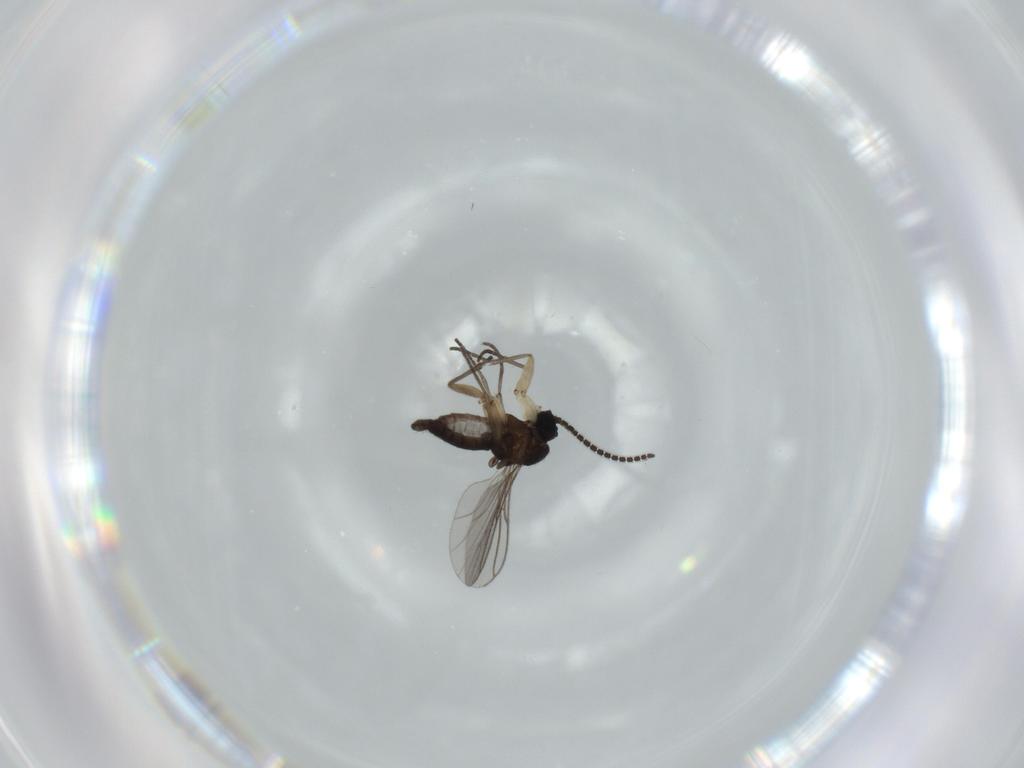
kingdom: Animalia
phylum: Arthropoda
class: Insecta
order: Diptera
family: Sciaridae
